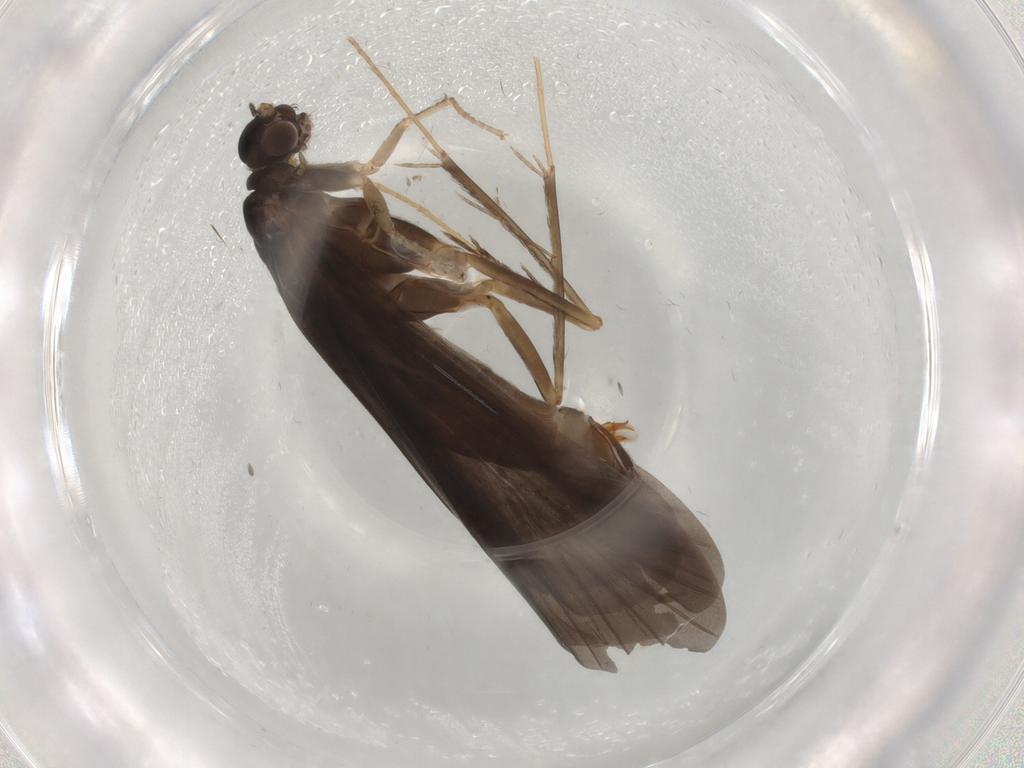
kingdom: Animalia
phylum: Arthropoda
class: Insecta
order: Trichoptera
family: Hydropsychidae
